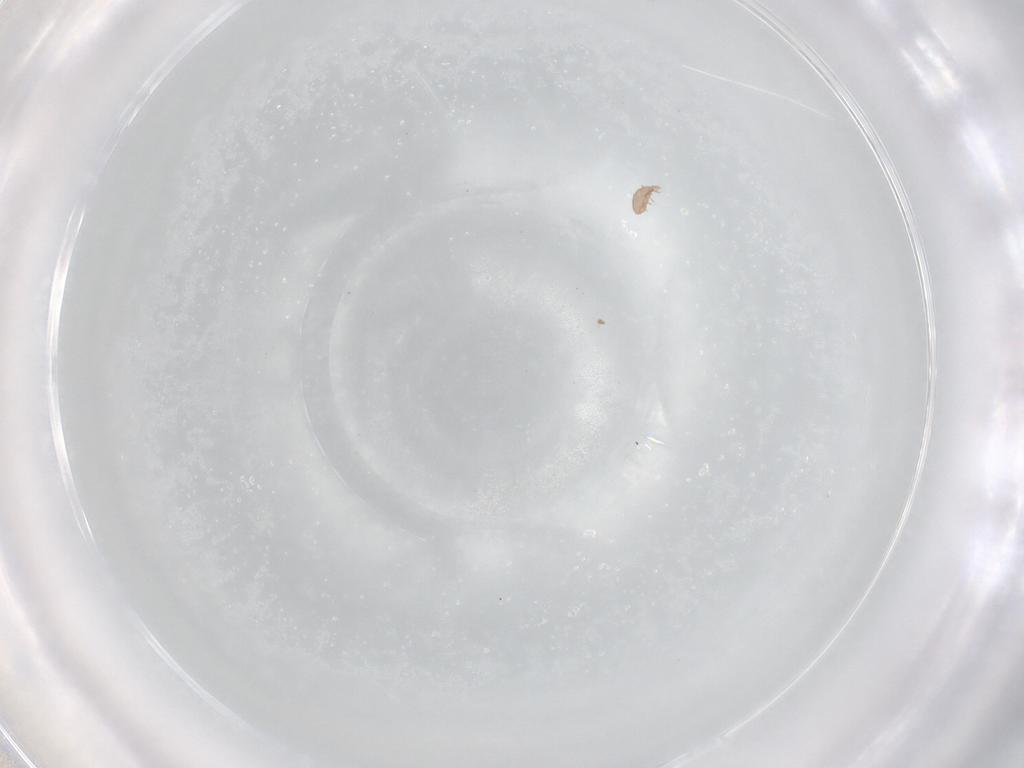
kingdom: Animalia
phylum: Arthropoda
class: Arachnida
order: Sarcoptiformes
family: Eremaeidae
